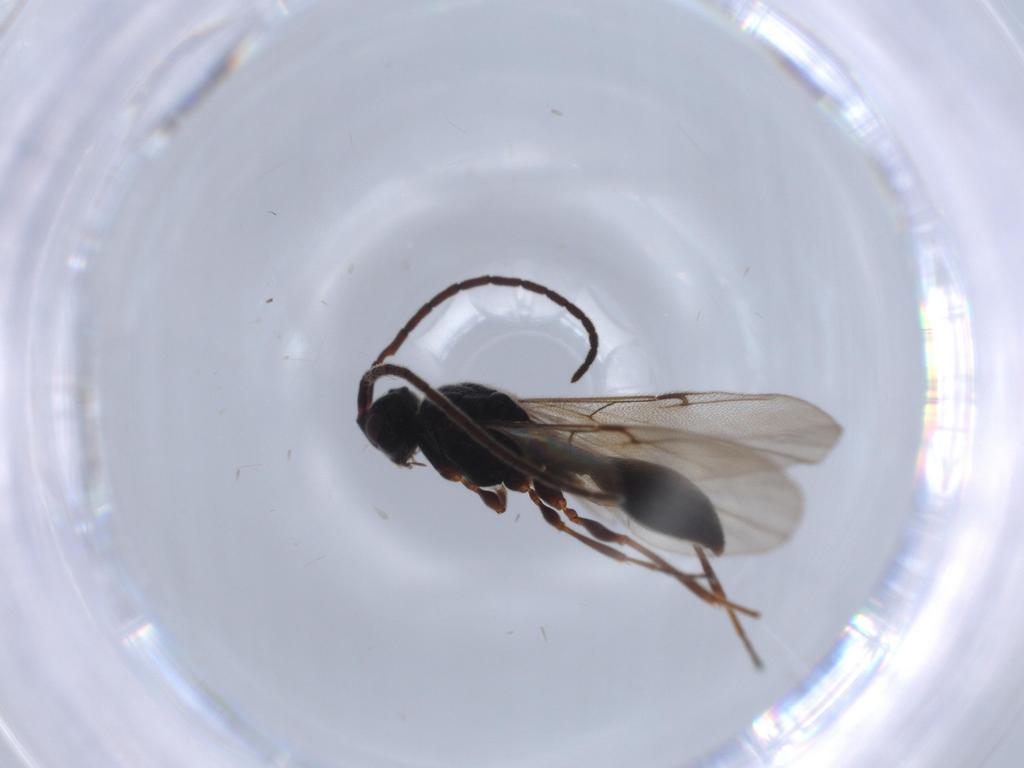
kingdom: Animalia
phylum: Arthropoda
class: Insecta
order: Hymenoptera
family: Diapriidae
